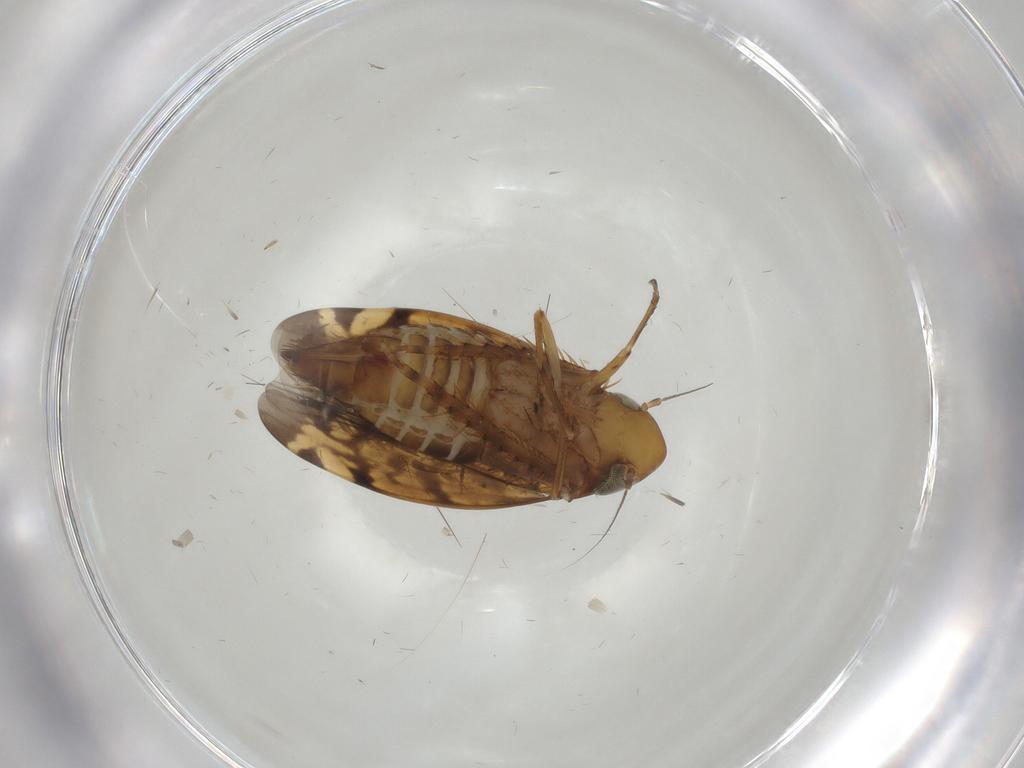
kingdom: Animalia
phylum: Arthropoda
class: Insecta
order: Hemiptera
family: Cicadellidae
